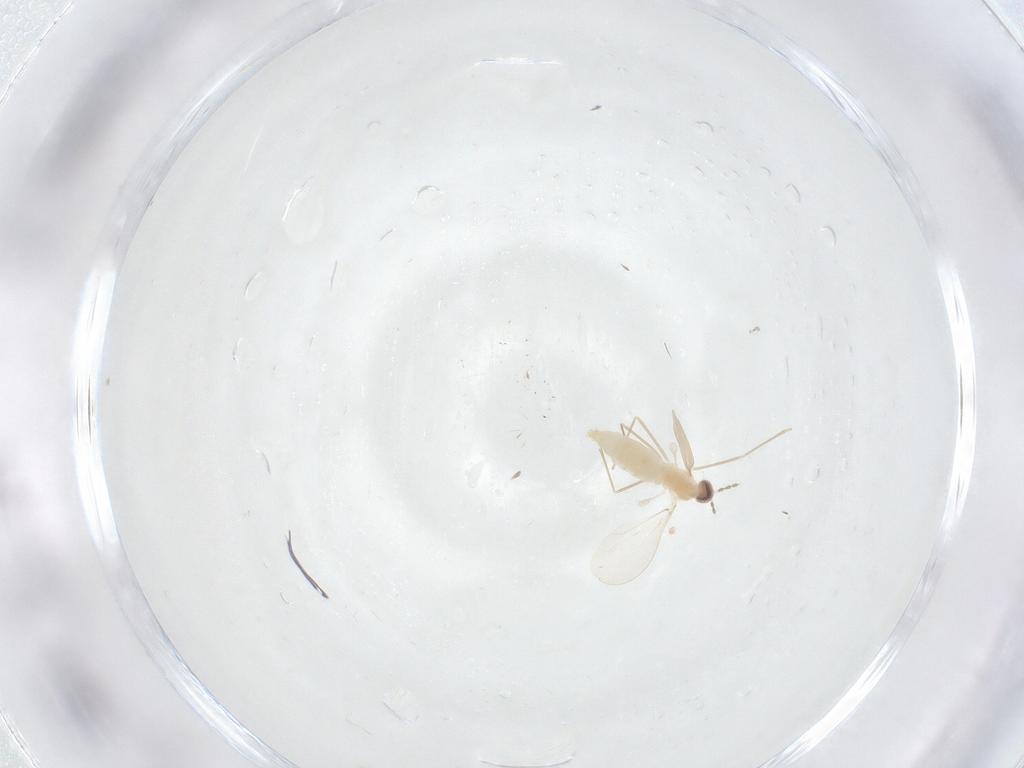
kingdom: Animalia
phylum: Arthropoda
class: Insecta
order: Diptera
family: Cecidomyiidae
